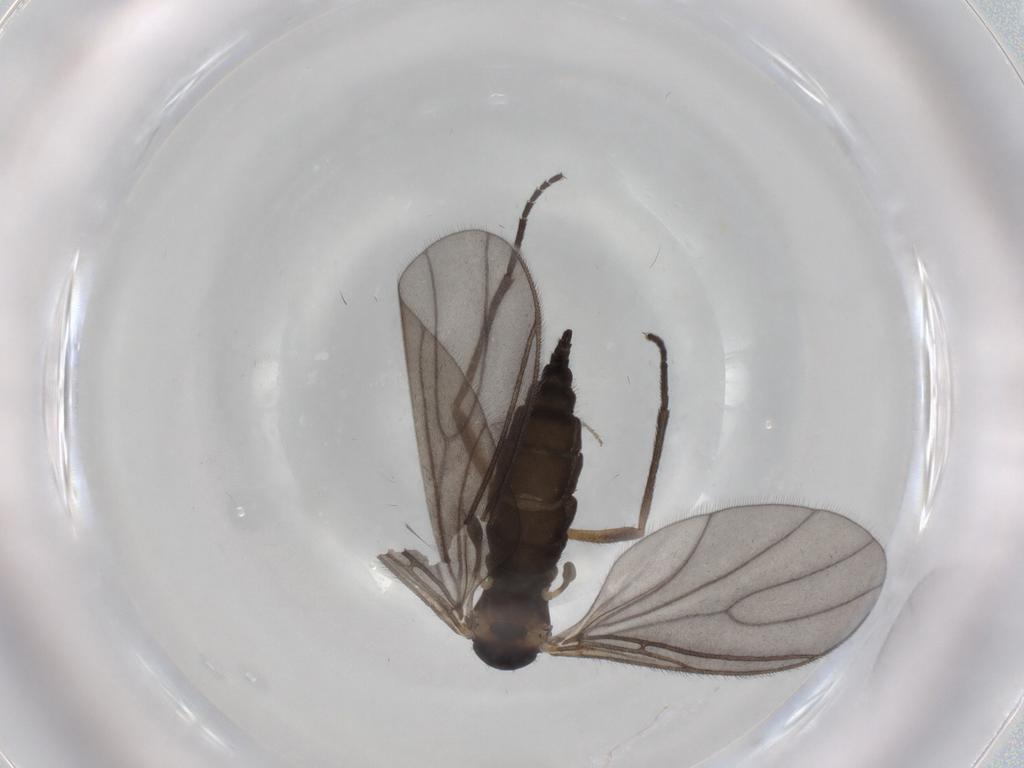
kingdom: Animalia
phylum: Arthropoda
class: Insecta
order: Diptera
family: Sciaridae
